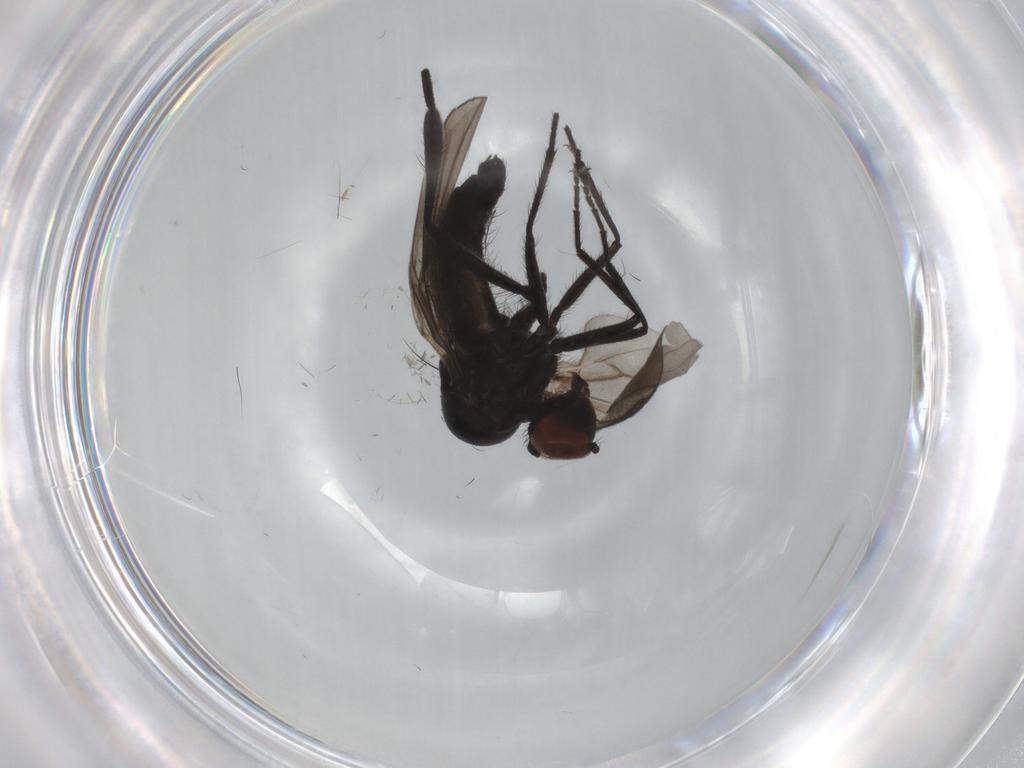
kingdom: Animalia
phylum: Arthropoda
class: Insecta
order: Diptera
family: Hybotidae
